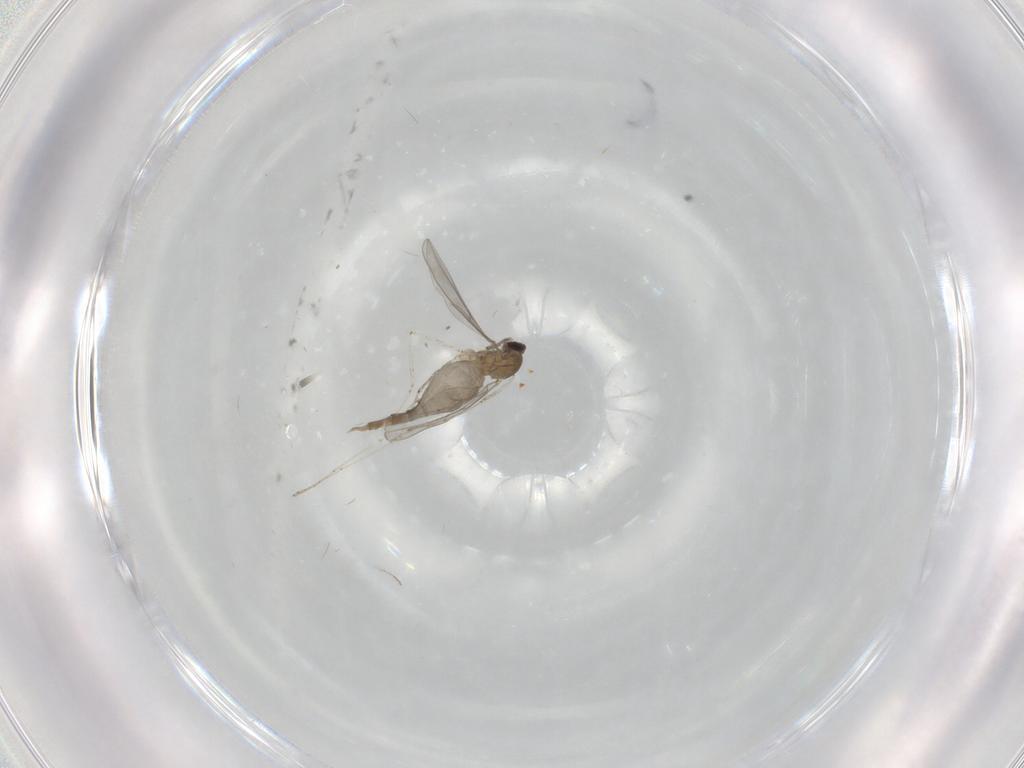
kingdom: Animalia
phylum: Arthropoda
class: Insecta
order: Diptera
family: Cecidomyiidae
